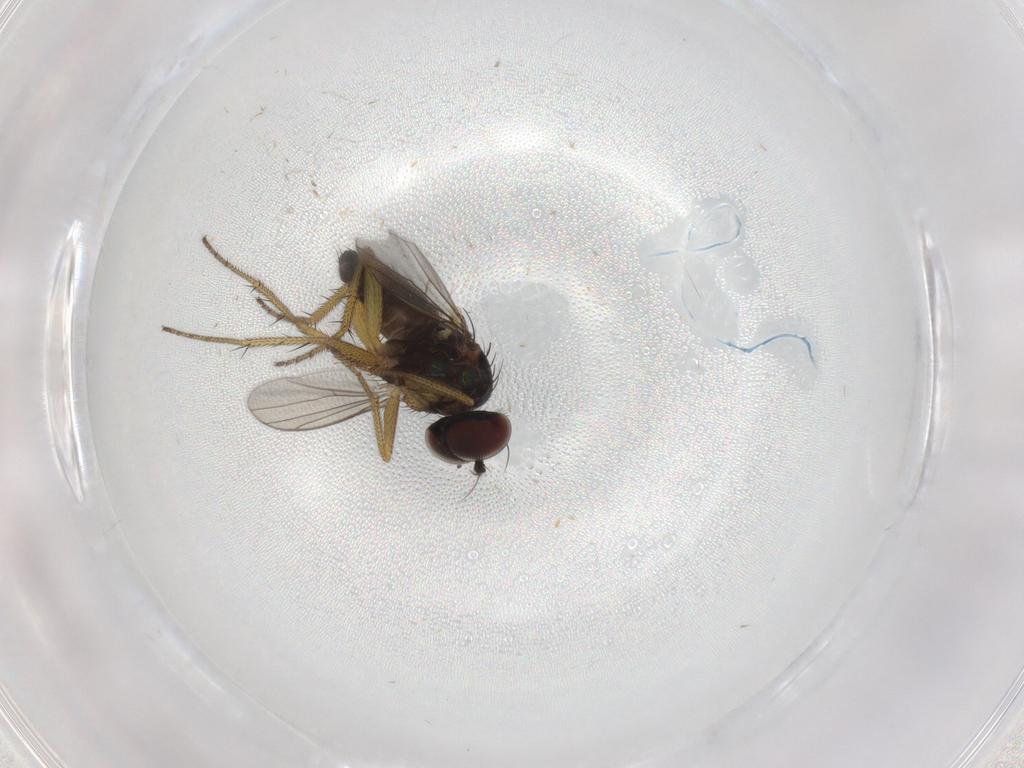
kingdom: Animalia
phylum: Arthropoda
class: Insecta
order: Diptera
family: Dolichopodidae
